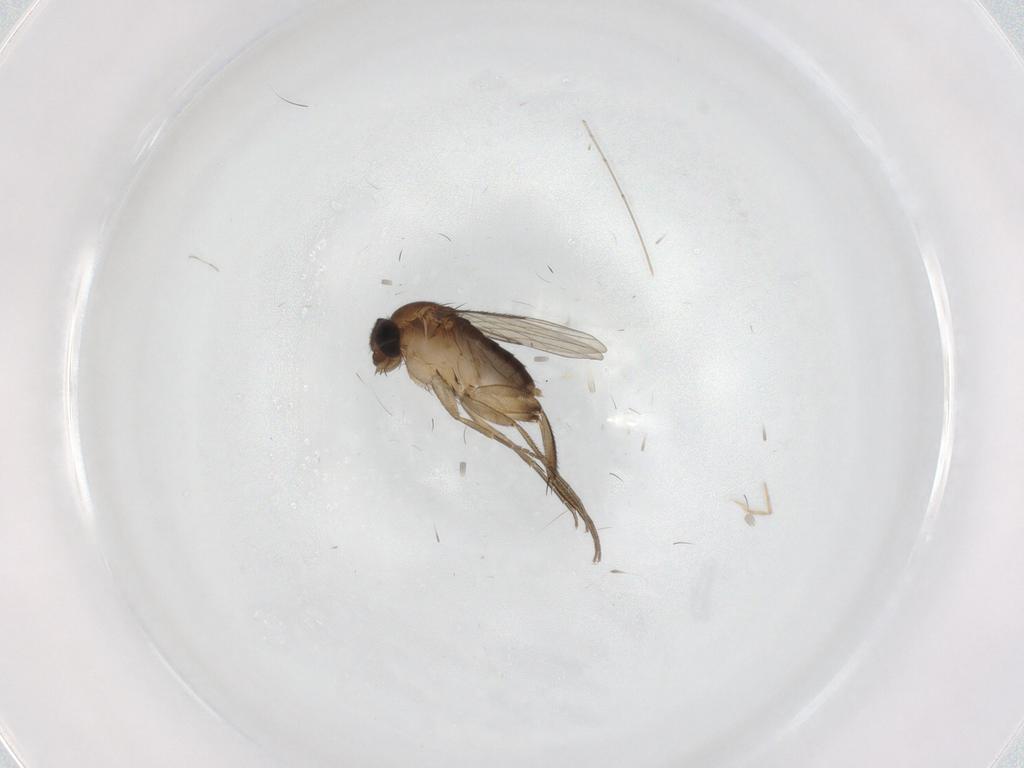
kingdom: Animalia
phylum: Arthropoda
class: Insecta
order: Diptera
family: Phoridae
